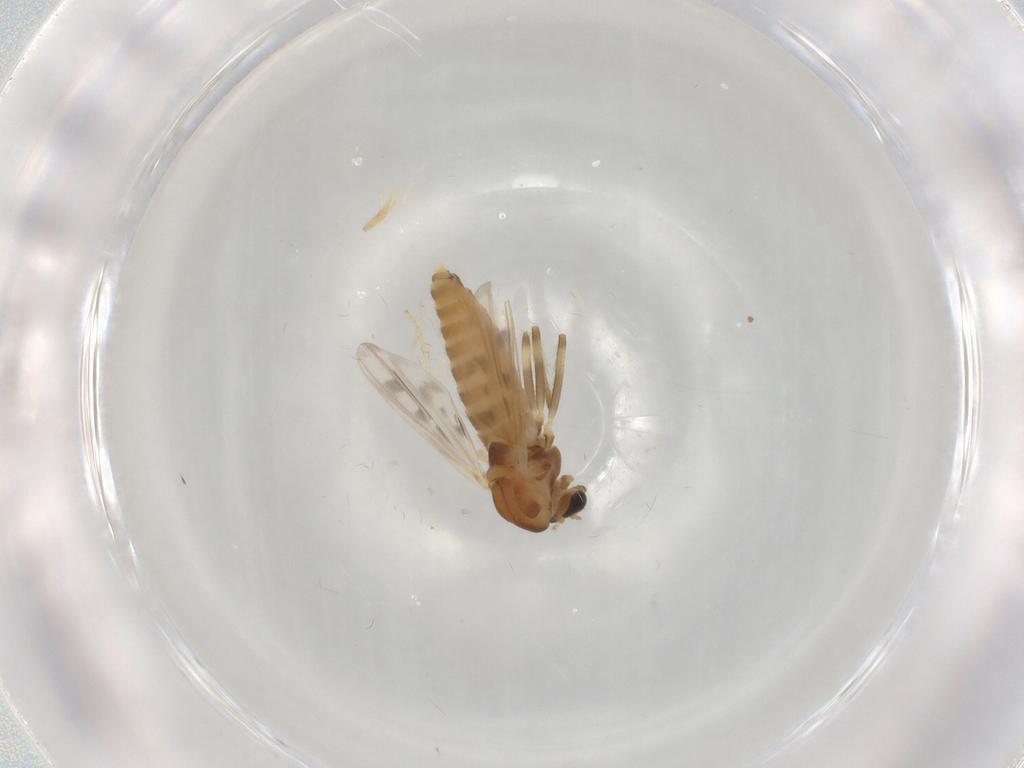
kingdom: Animalia
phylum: Arthropoda
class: Insecta
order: Diptera
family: Chironomidae
